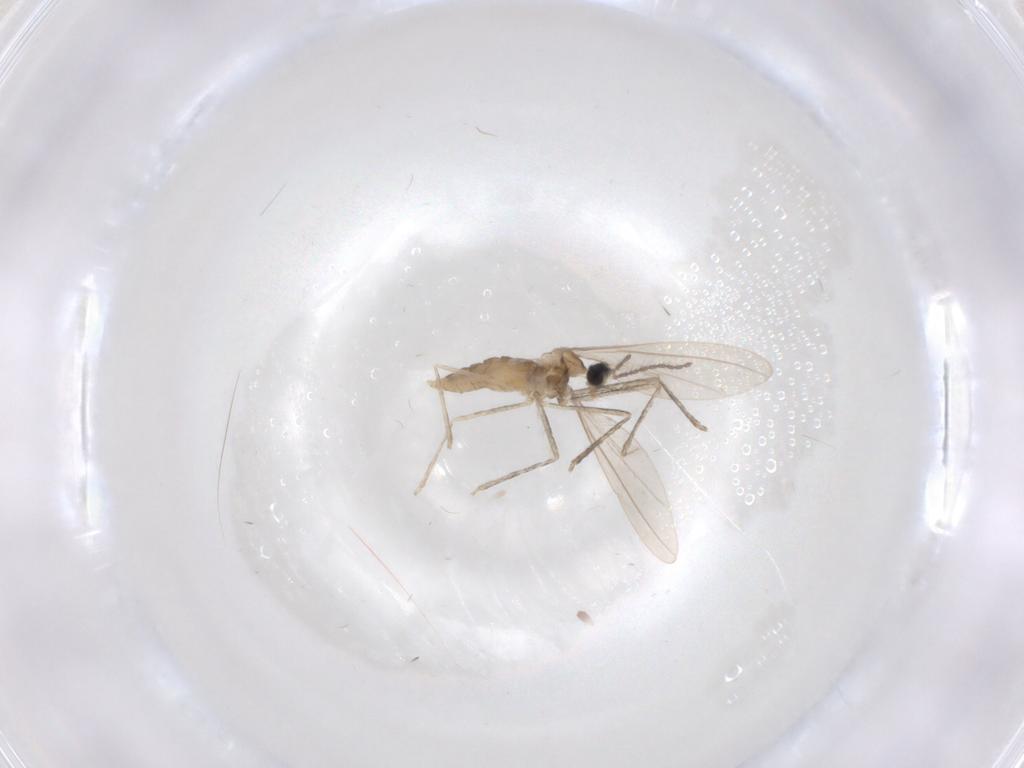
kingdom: Animalia
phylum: Arthropoda
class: Insecta
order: Diptera
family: Chironomidae
